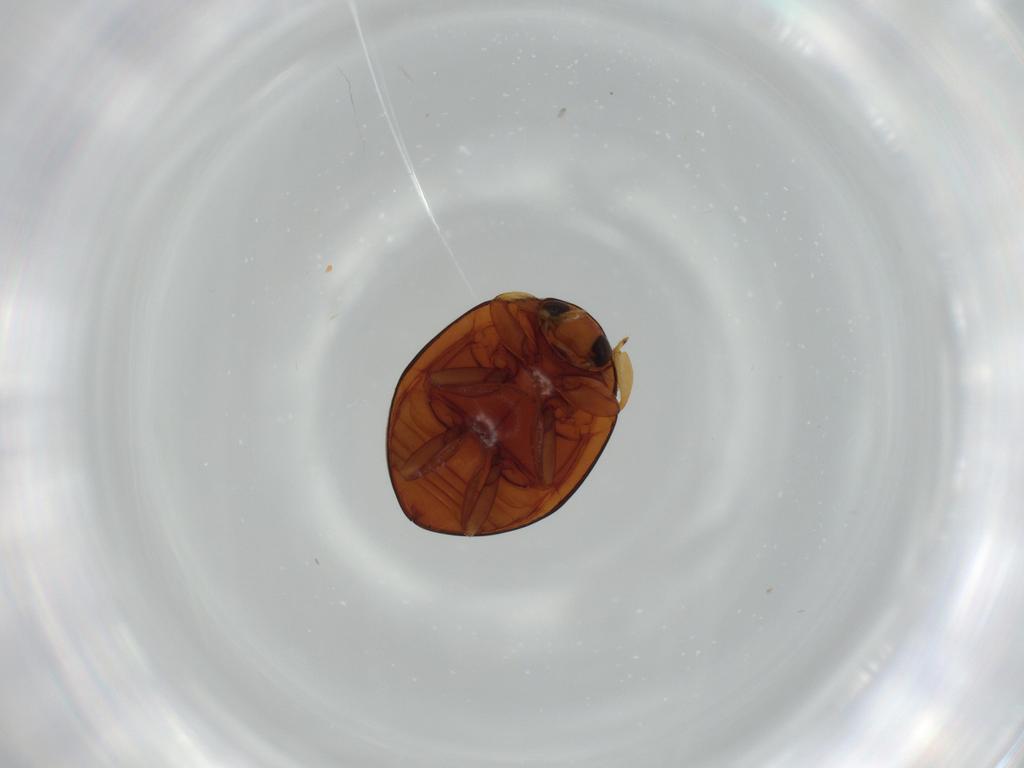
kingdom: Animalia
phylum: Arthropoda
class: Insecta
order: Coleoptera
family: Coccinellidae
